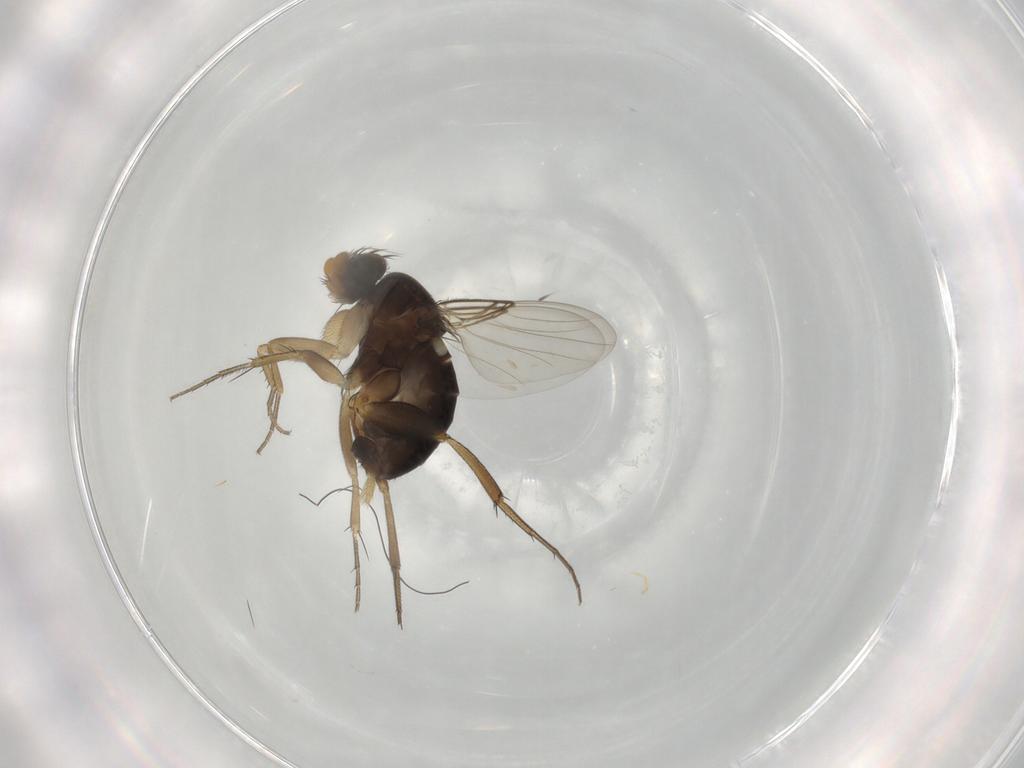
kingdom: Animalia
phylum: Arthropoda
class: Insecta
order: Diptera
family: Phoridae
